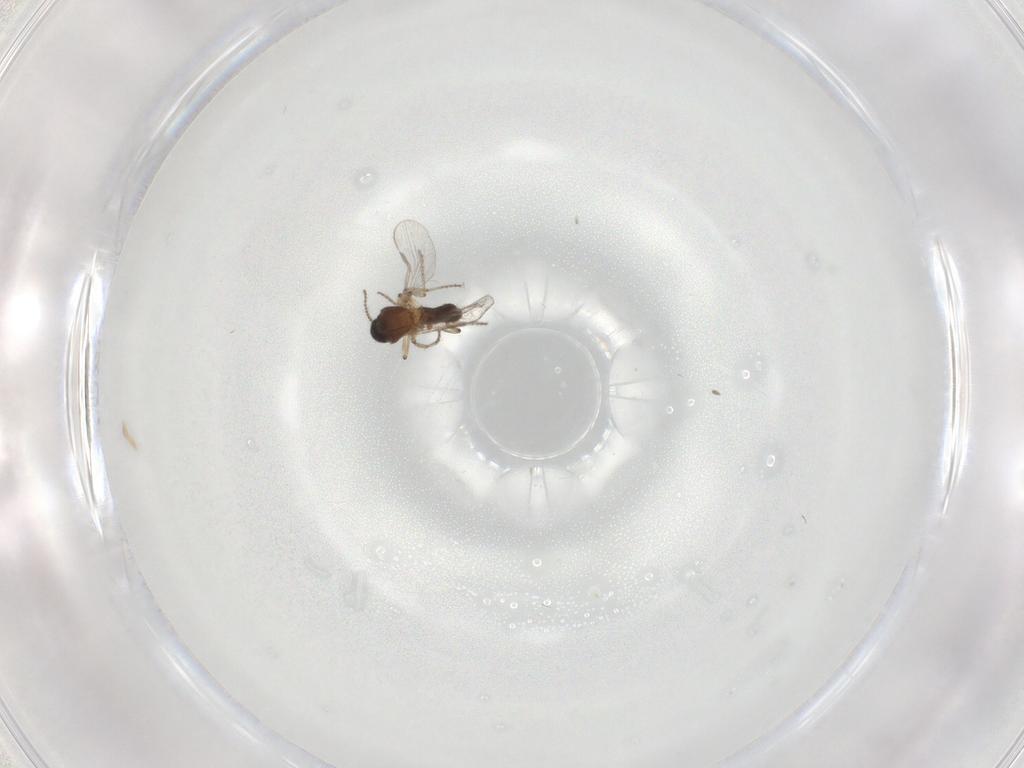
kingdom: Animalia
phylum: Arthropoda
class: Insecta
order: Diptera
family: Ceratopogonidae
